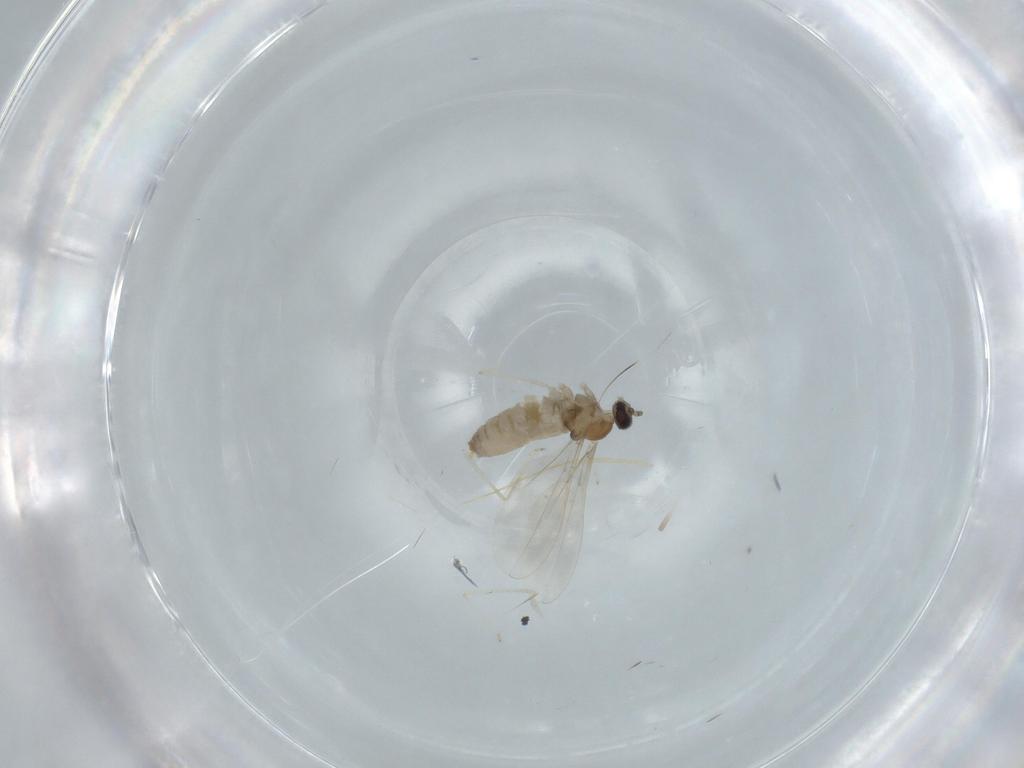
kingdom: Animalia
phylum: Arthropoda
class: Insecta
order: Diptera
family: Cecidomyiidae
